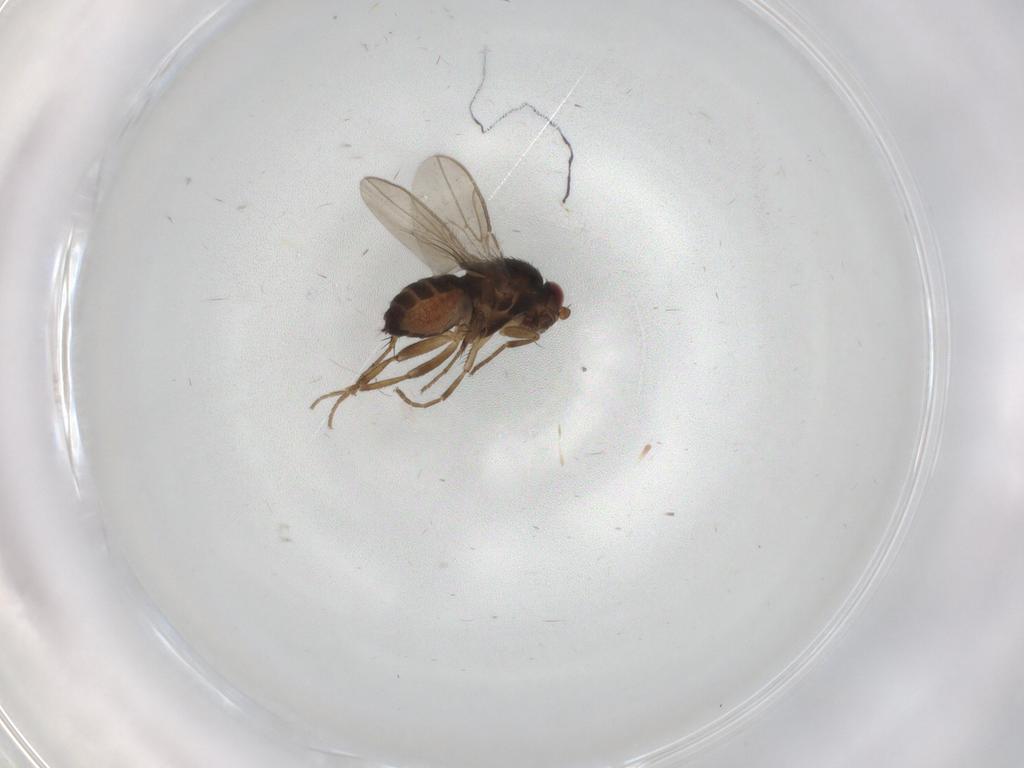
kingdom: Animalia
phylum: Arthropoda
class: Insecta
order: Diptera
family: Sphaeroceridae
